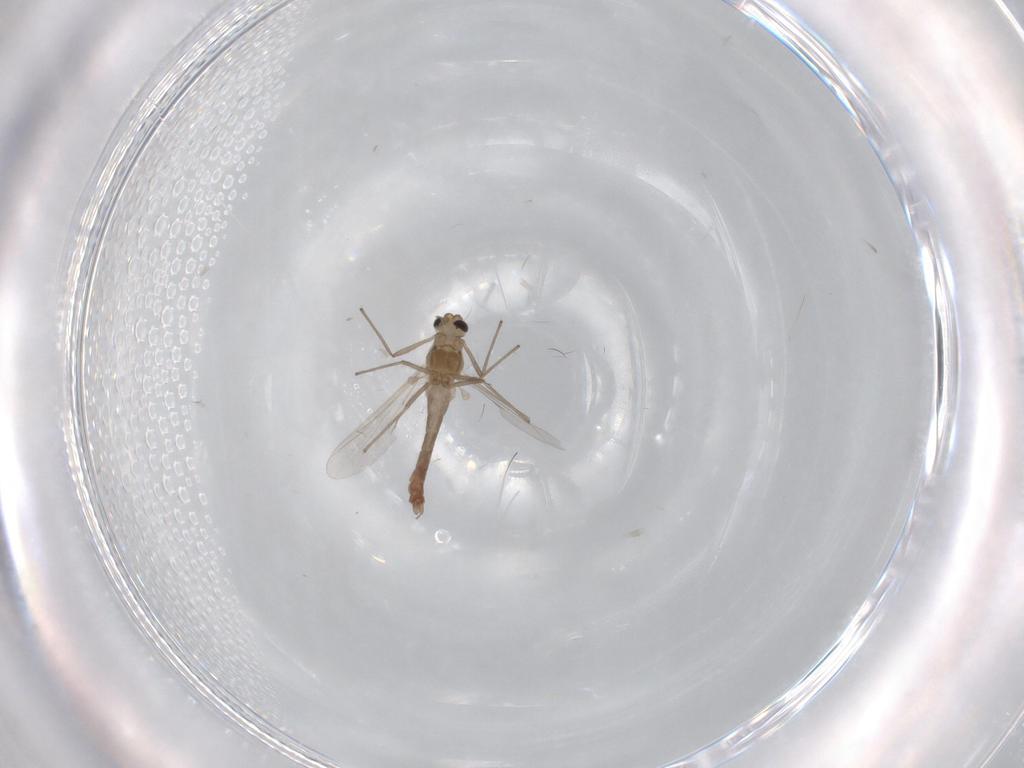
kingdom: Animalia
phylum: Arthropoda
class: Insecta
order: Diptera
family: Chironomidae
